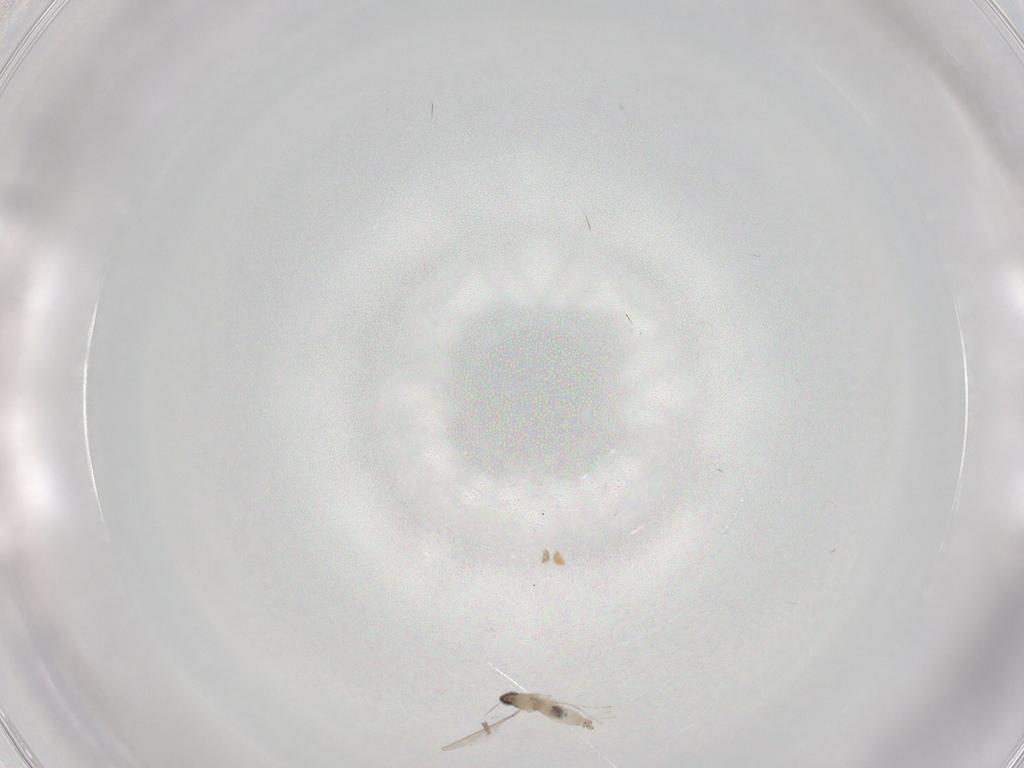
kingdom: Animalia
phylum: Arthropoda
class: Insecta
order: Diptera
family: Chironomidae
